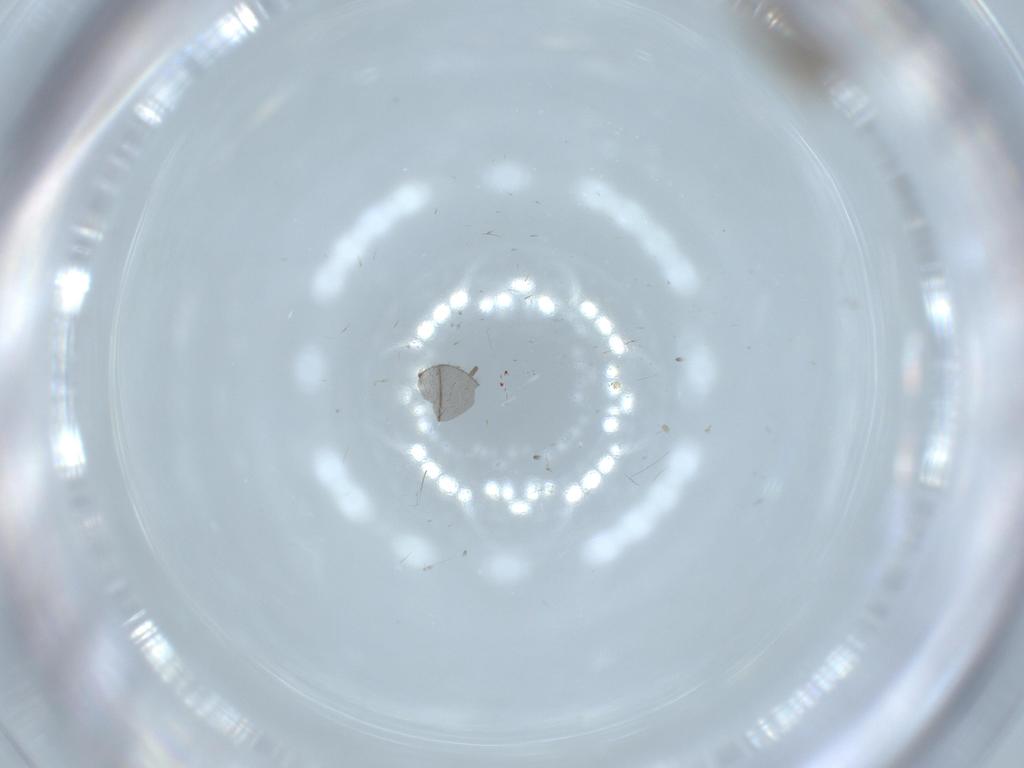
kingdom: Animalia
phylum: Arthropoda
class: Insecta
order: Diptera
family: Chironomidae
